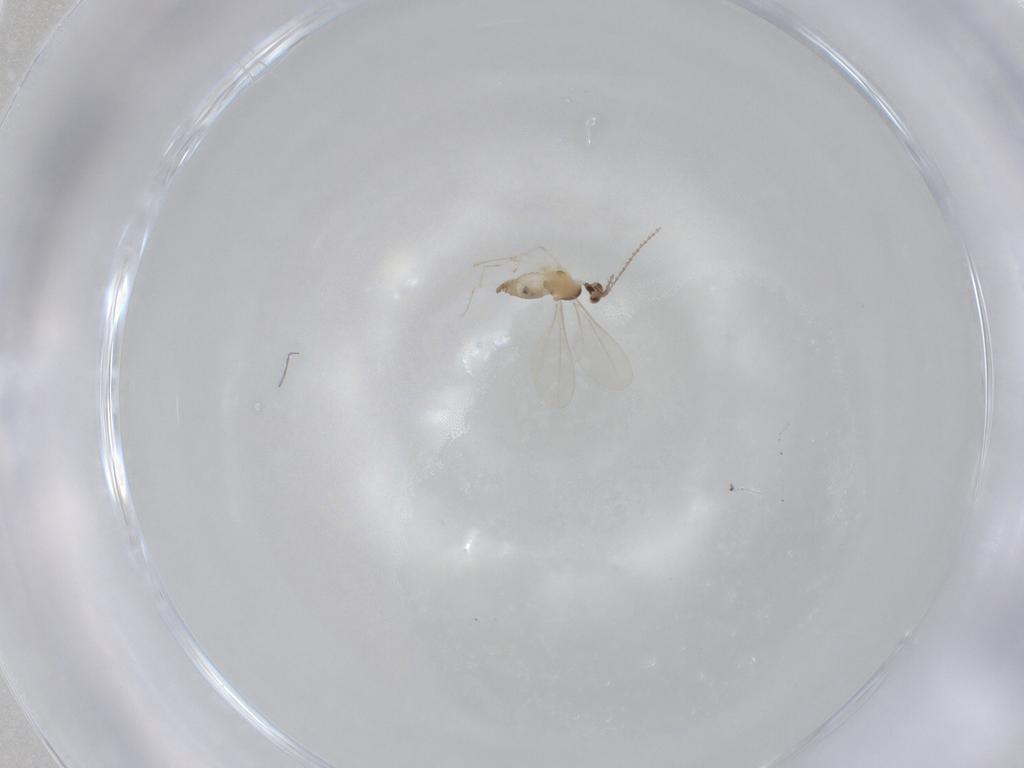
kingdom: Animalia
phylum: Arthropoda
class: Insecta
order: Diptera
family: Cecidomyiidae
